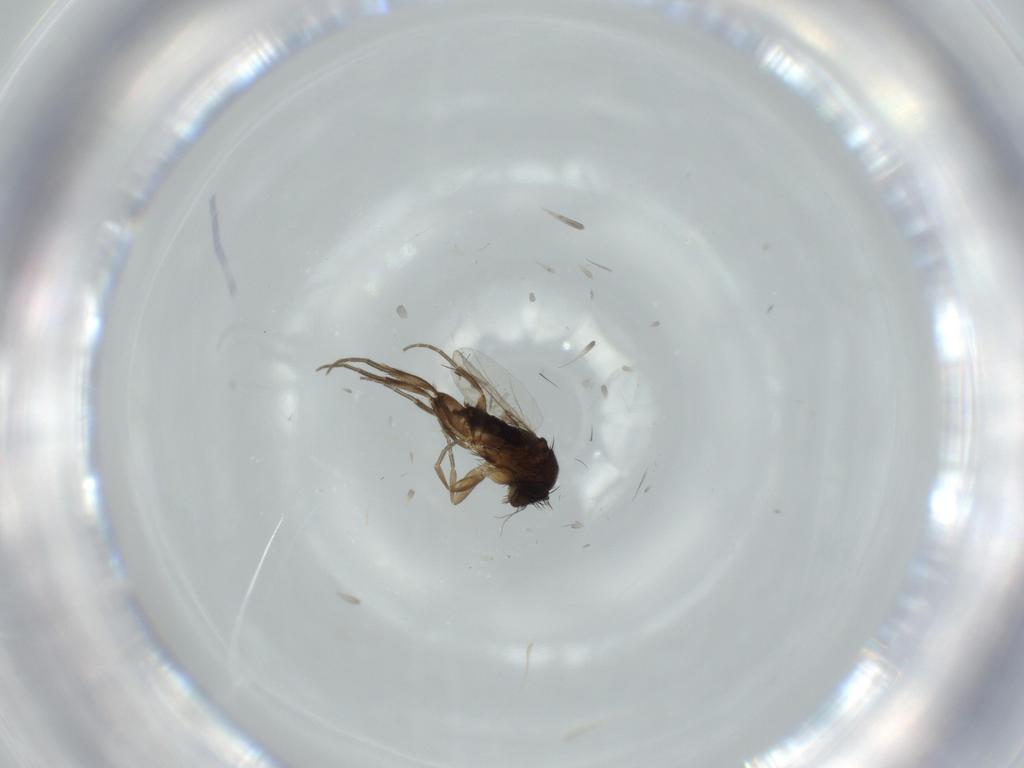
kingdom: Animalia
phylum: Arthropoda
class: Insecta
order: Diptera
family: Phoridae
